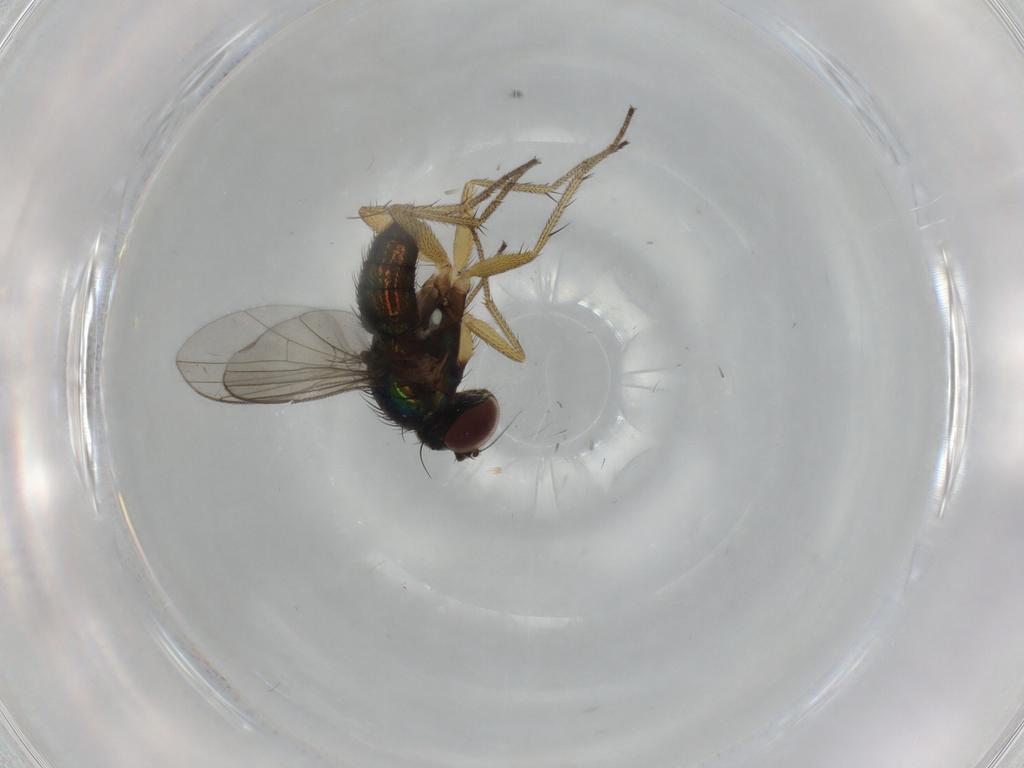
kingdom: Animalia
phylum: Arthropoda
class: Insecta
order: Diptera
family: Dolichopodidae
